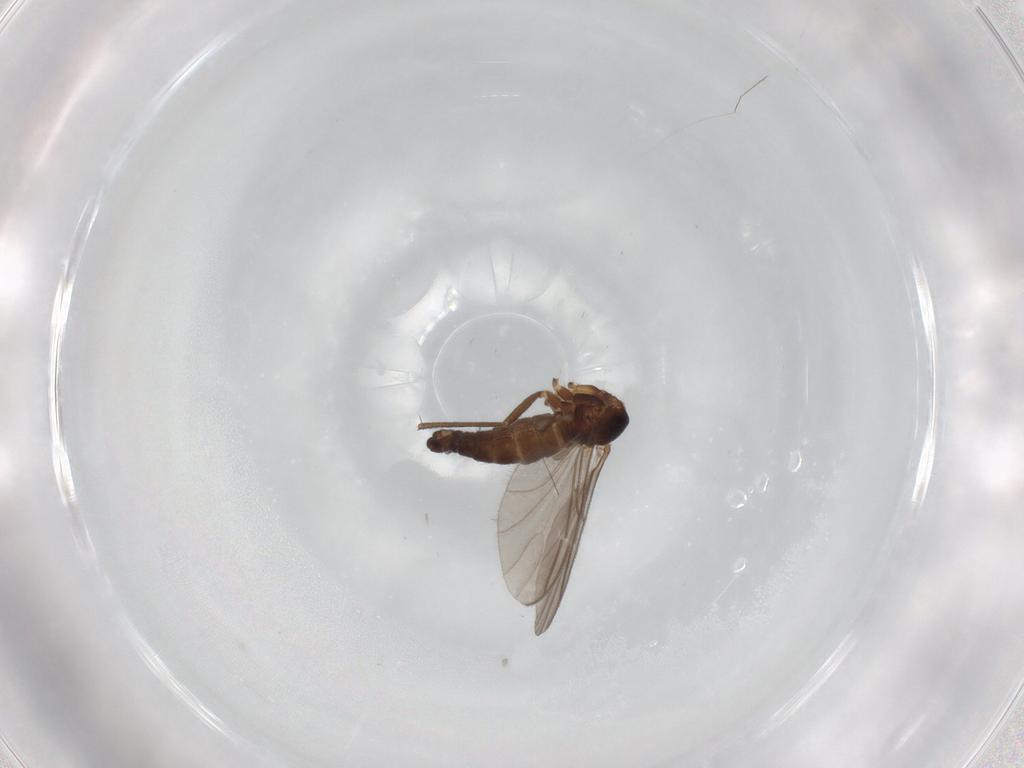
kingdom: Animalia
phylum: Arthropoda
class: Insecta
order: Diptera
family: Sciaridae
